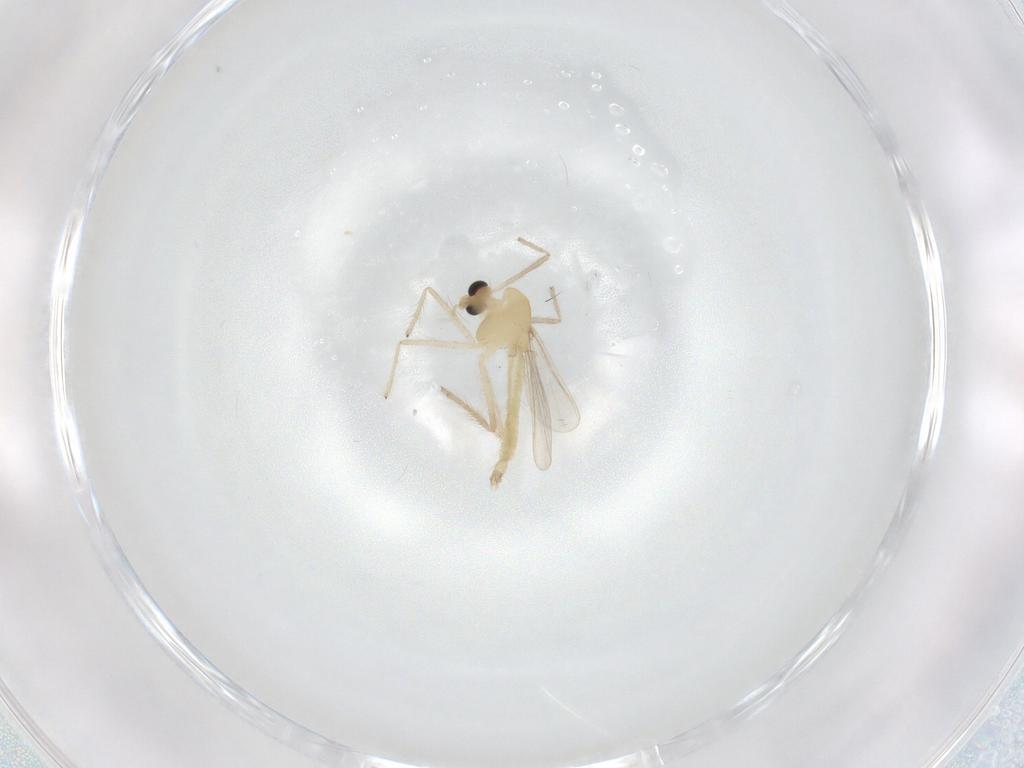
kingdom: Animalia
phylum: Arthropoda
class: Insecta
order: Diptera
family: Chironomidae
